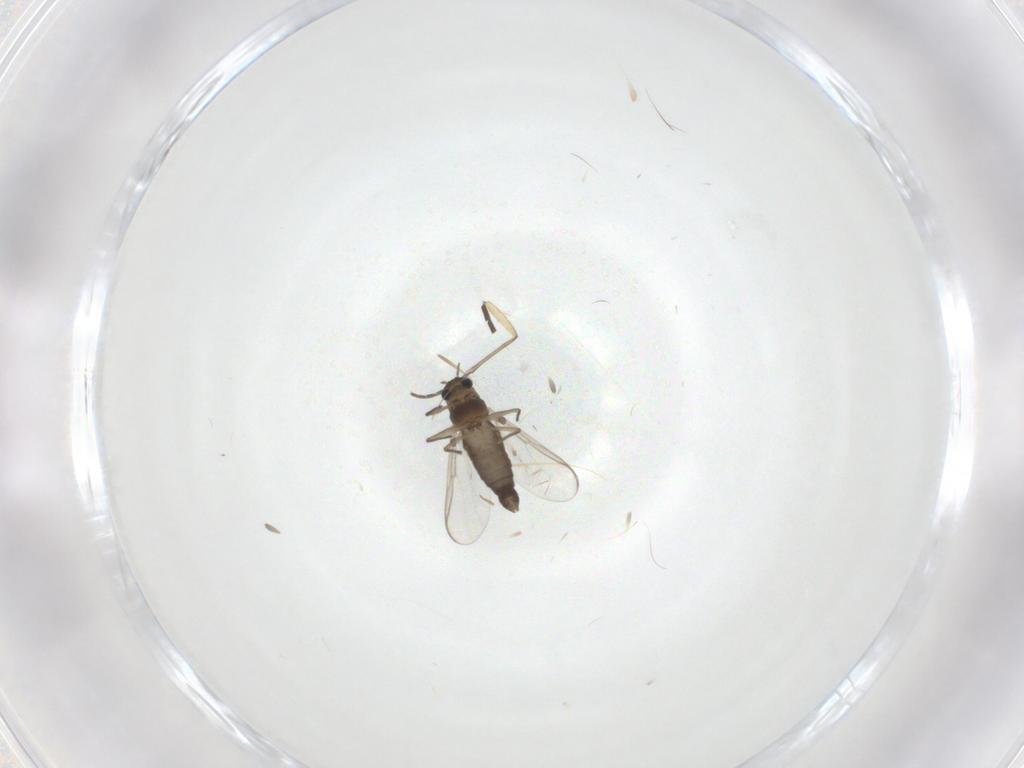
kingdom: Animalia
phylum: Arthropoda
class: Insecta
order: Diptera
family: Chironomidae
